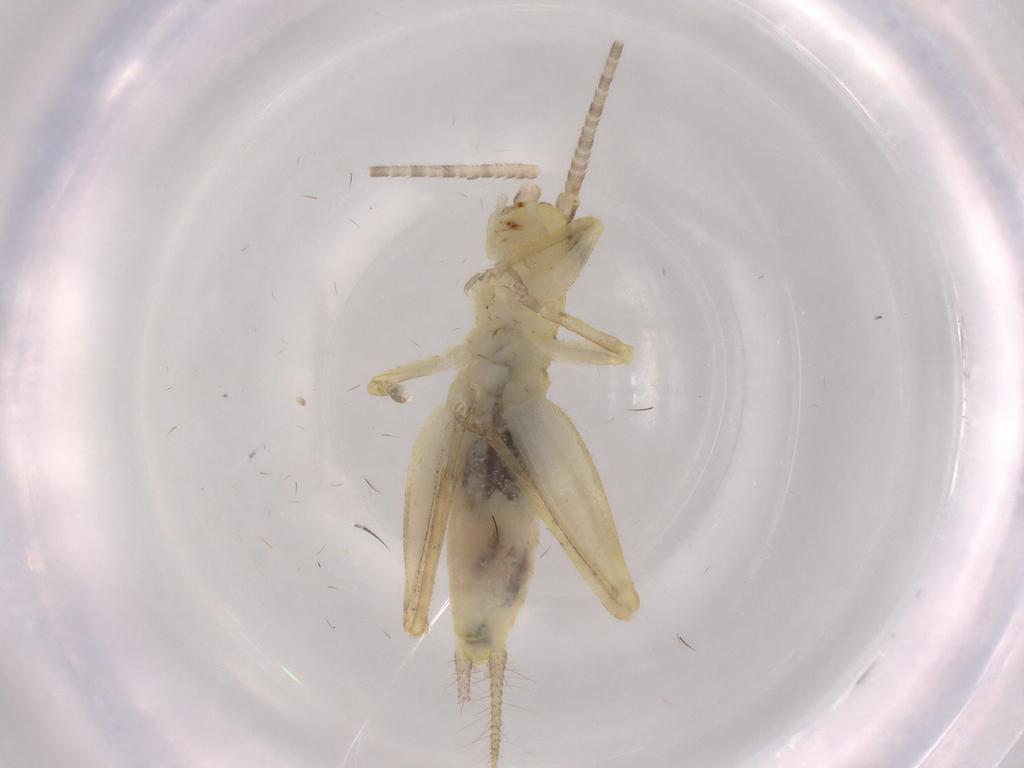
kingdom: Animalia
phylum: Arthropoda
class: Insecta
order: Orthoptera
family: Gryllidae
